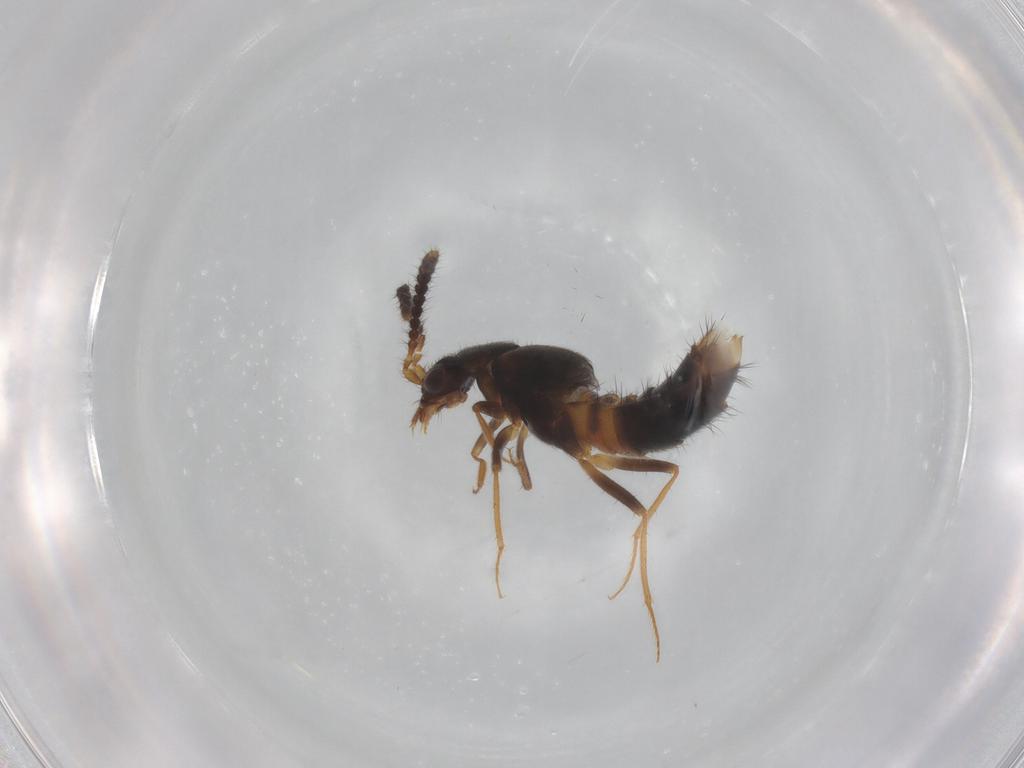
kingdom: Animalia
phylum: Arthropoda
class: Insecta
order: Coleoptera
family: Staphylinidae
